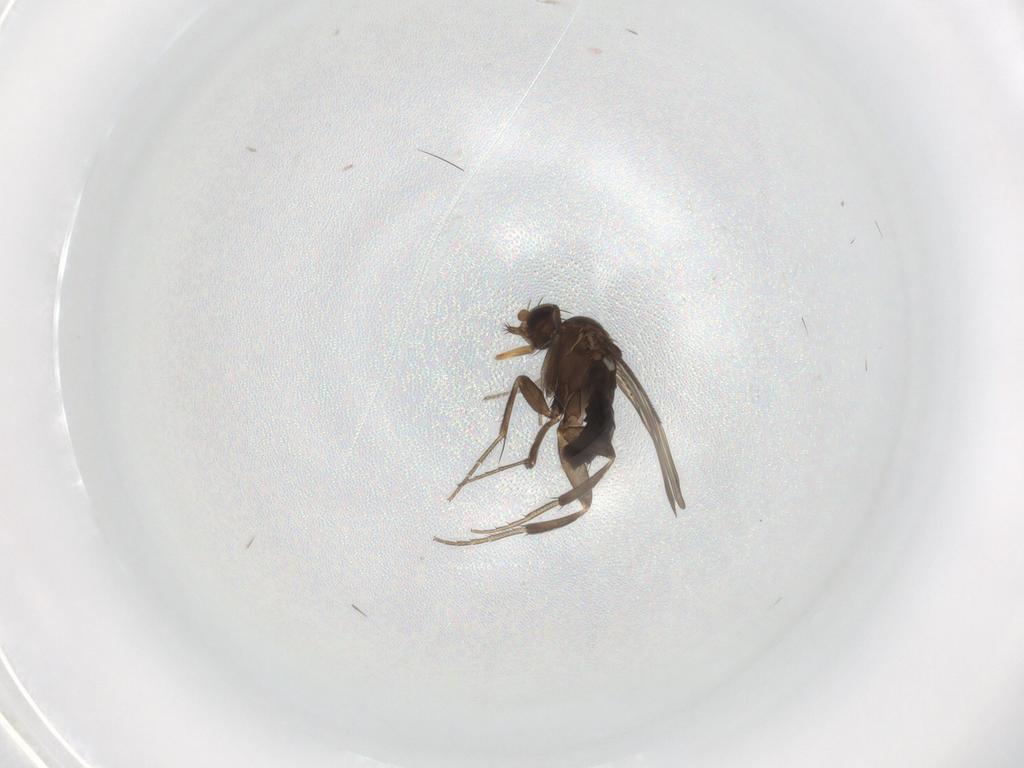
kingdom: Animalia
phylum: Arthropoda
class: Insecta
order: Diptera
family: Phoridae
